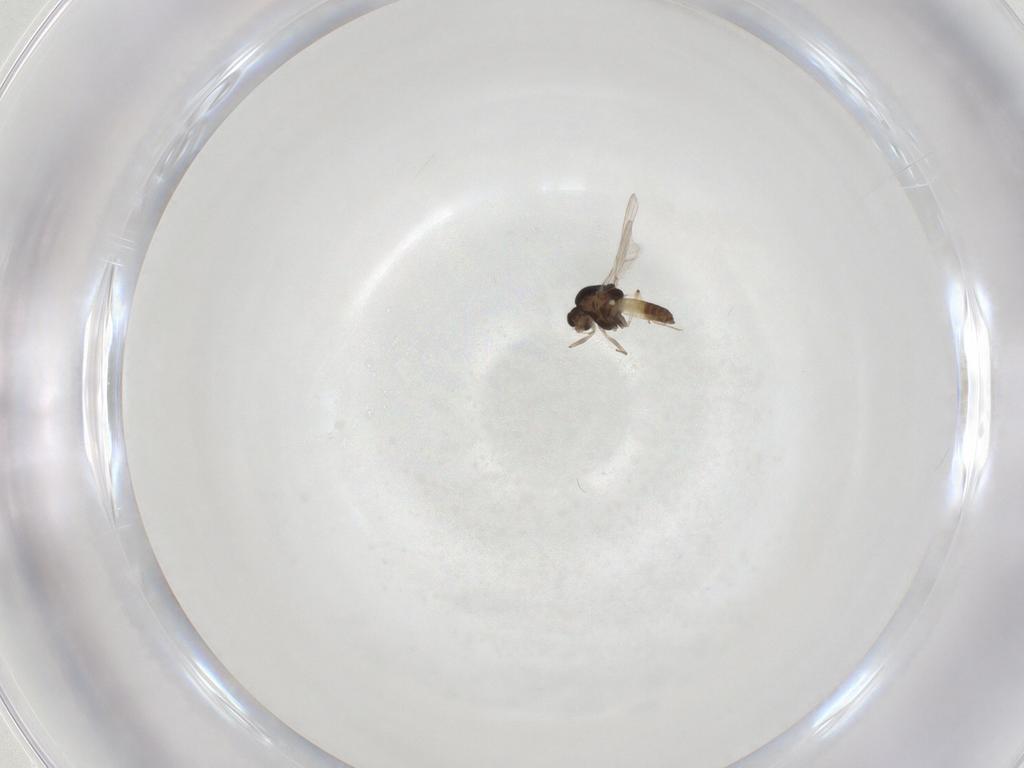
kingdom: Animalia
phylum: Arthropoda
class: Insecta
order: Diptera
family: Chironomidae
